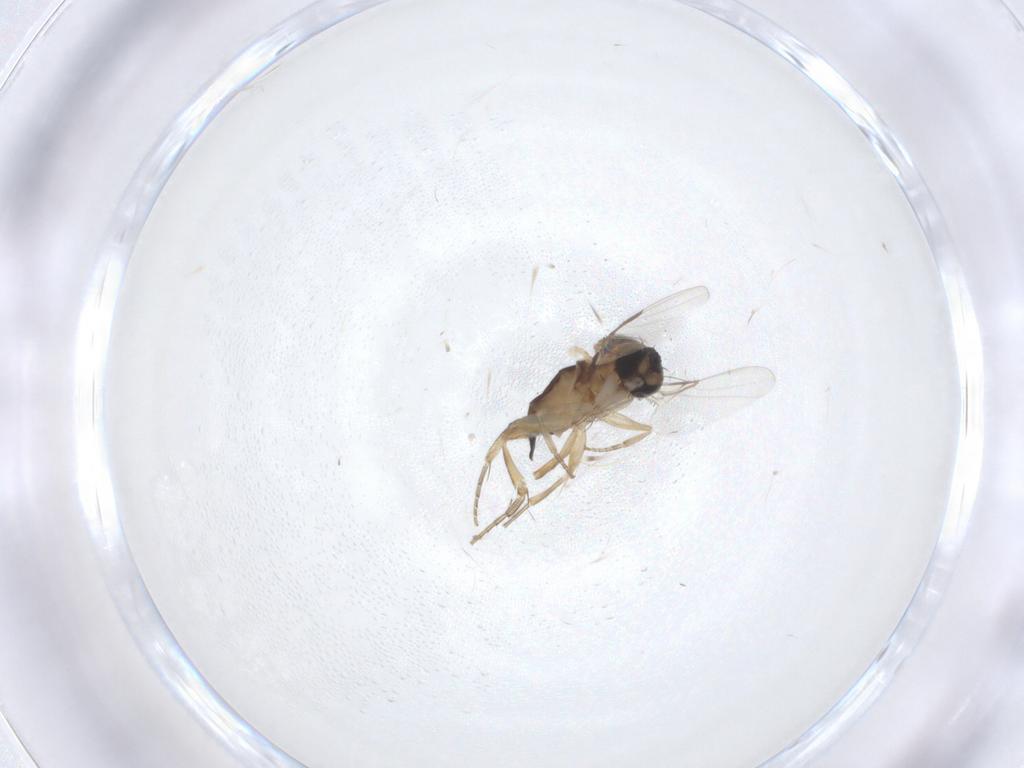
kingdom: Animalia
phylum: Arthropoda
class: Insecta
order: Diptera
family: Phoridae
